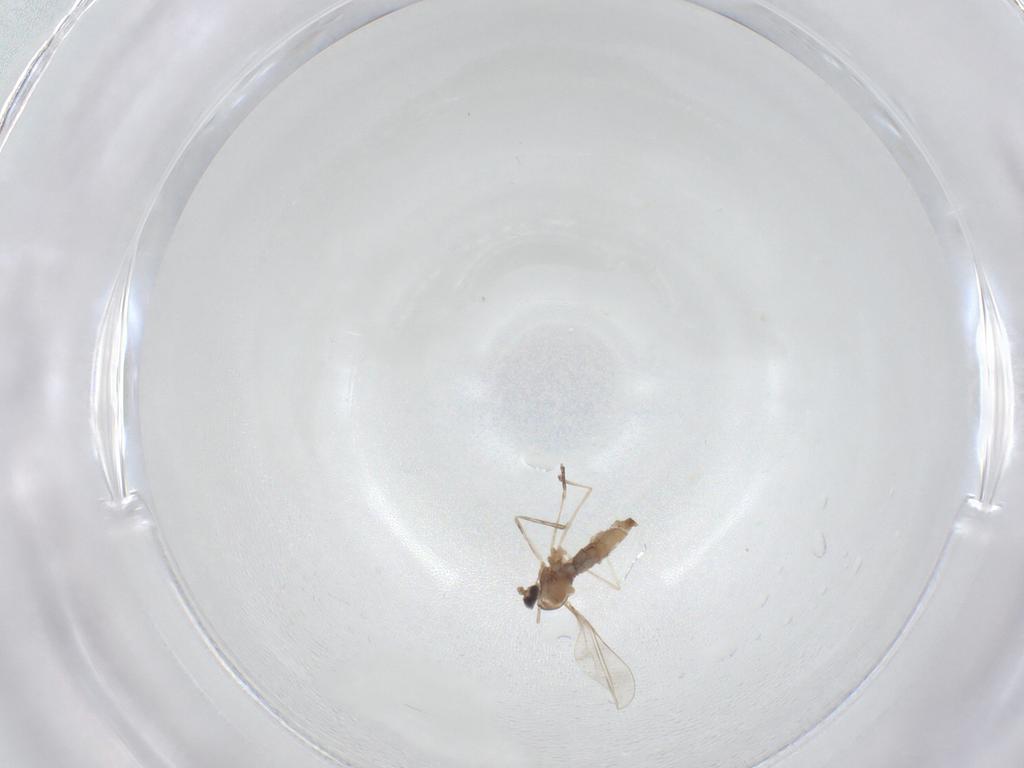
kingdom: Animalia
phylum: Arthropoda
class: Insecta
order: Diptera
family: Cecidomyiidae
